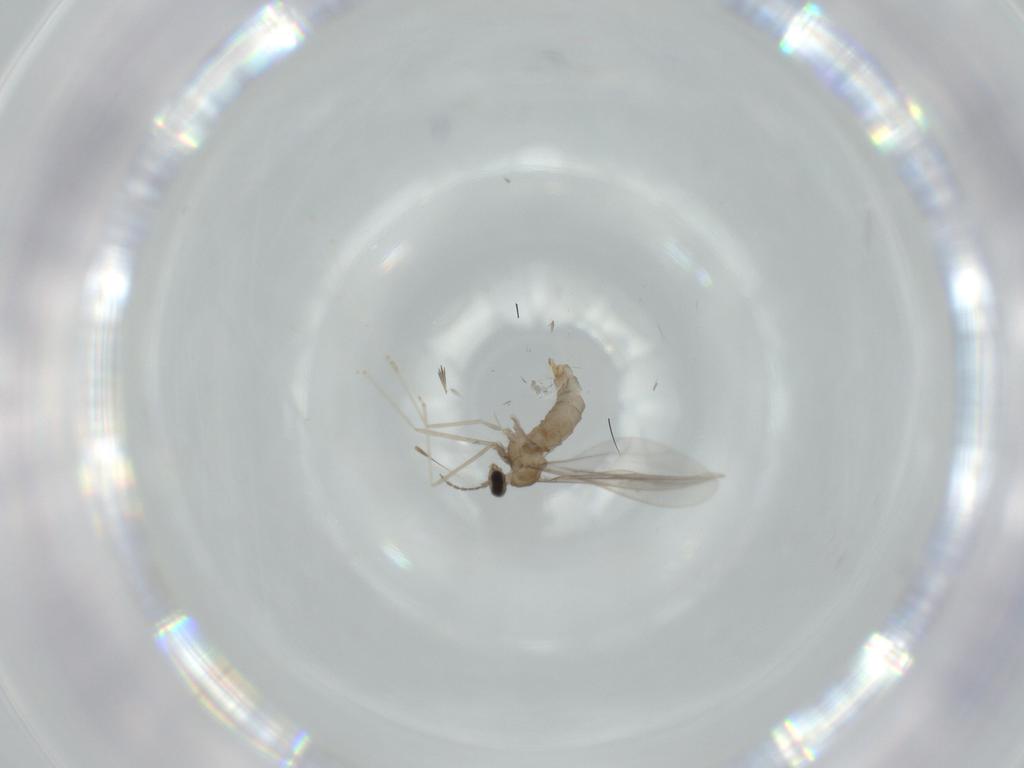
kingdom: Animalia
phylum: Arthropoda
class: Insecta
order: Diptera
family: Cecidomyiidae
